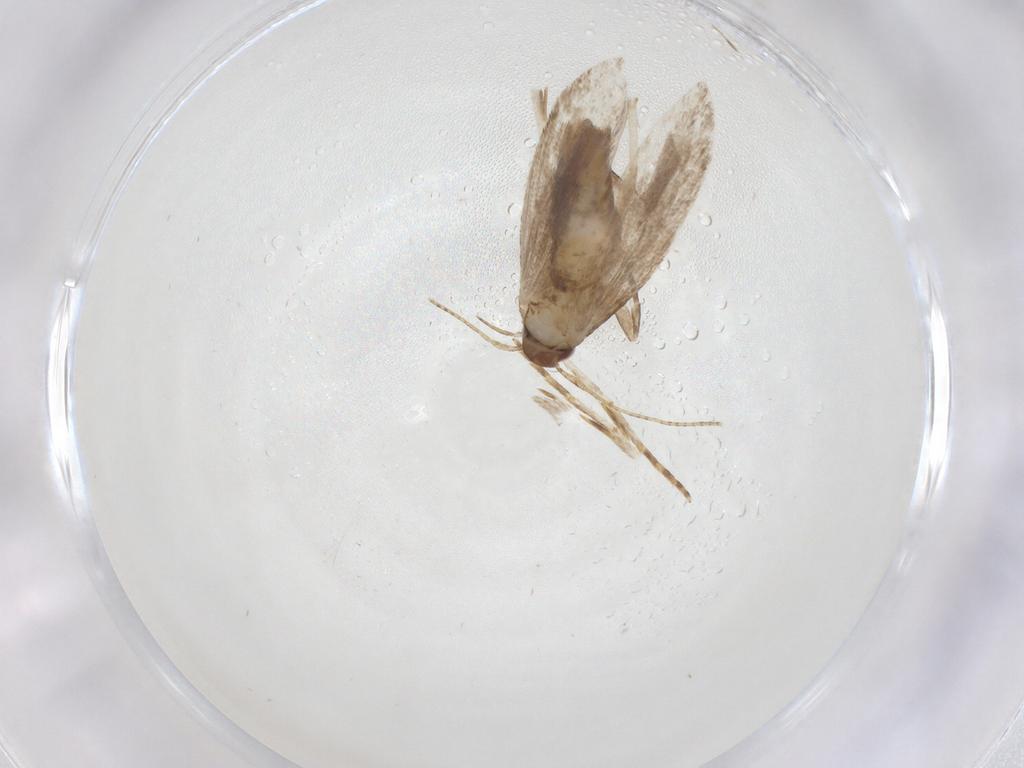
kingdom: Animalia
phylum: Arthropoda
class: Insecta
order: Lepidoptera
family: Gelechiidae
